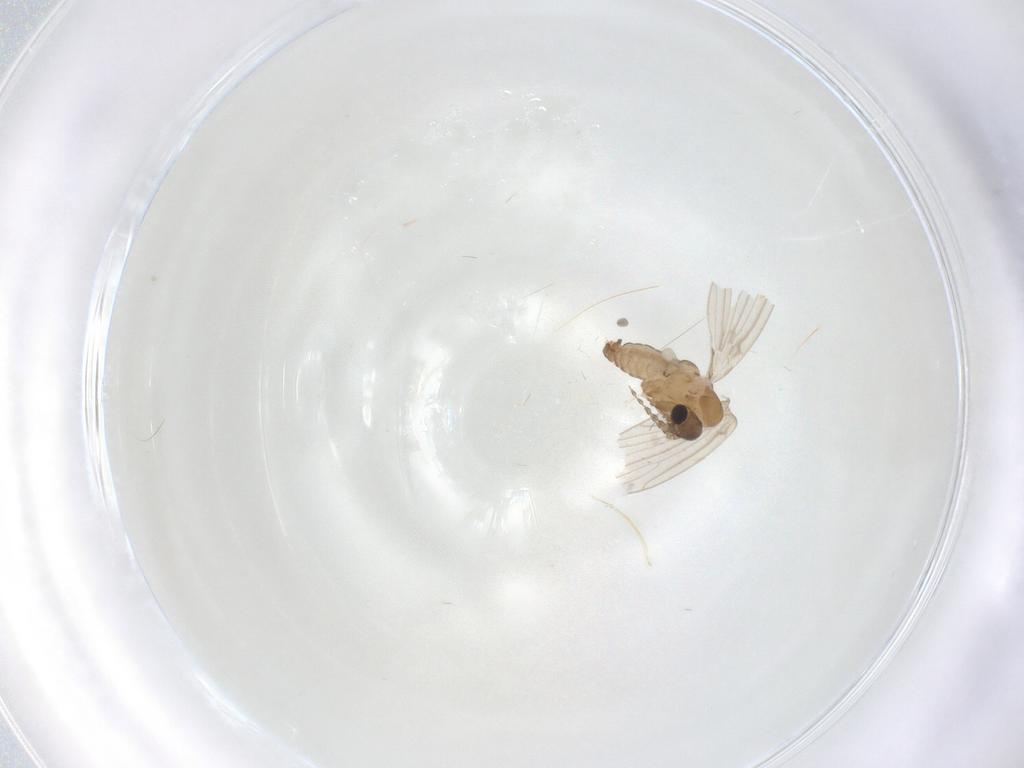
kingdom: Animalia
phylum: Arthropoda
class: Insecta
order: Diptera
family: Psychodidae
